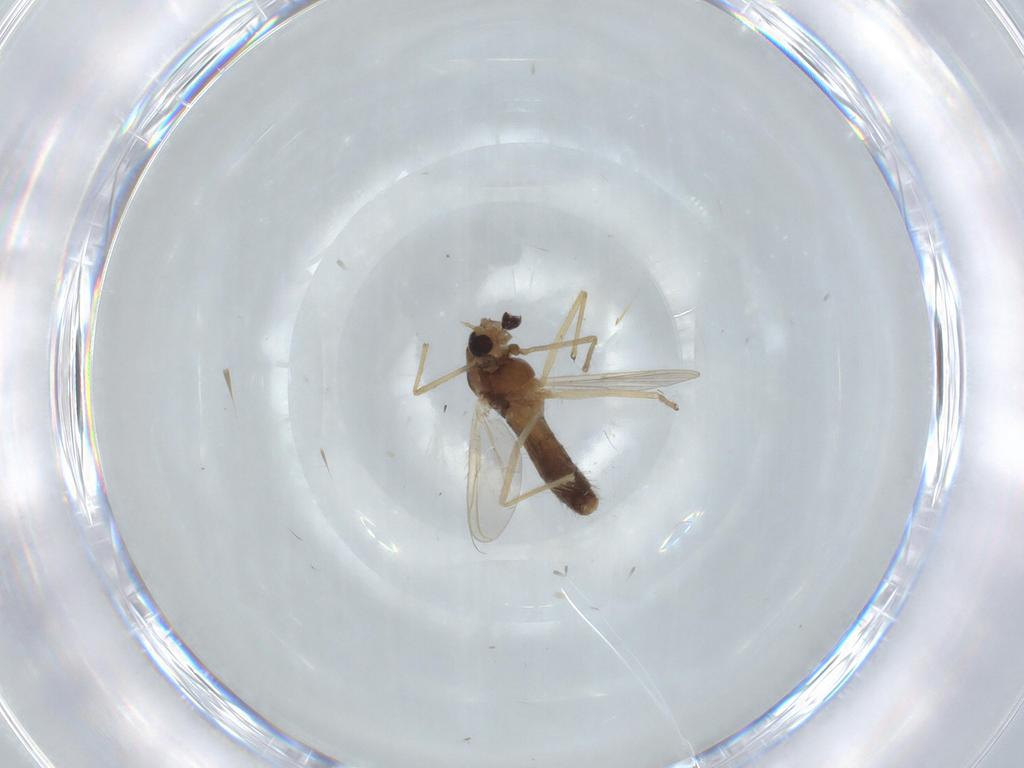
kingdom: Animalia
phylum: Arthropoda
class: Insecta
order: Diptera
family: Chironomidae
